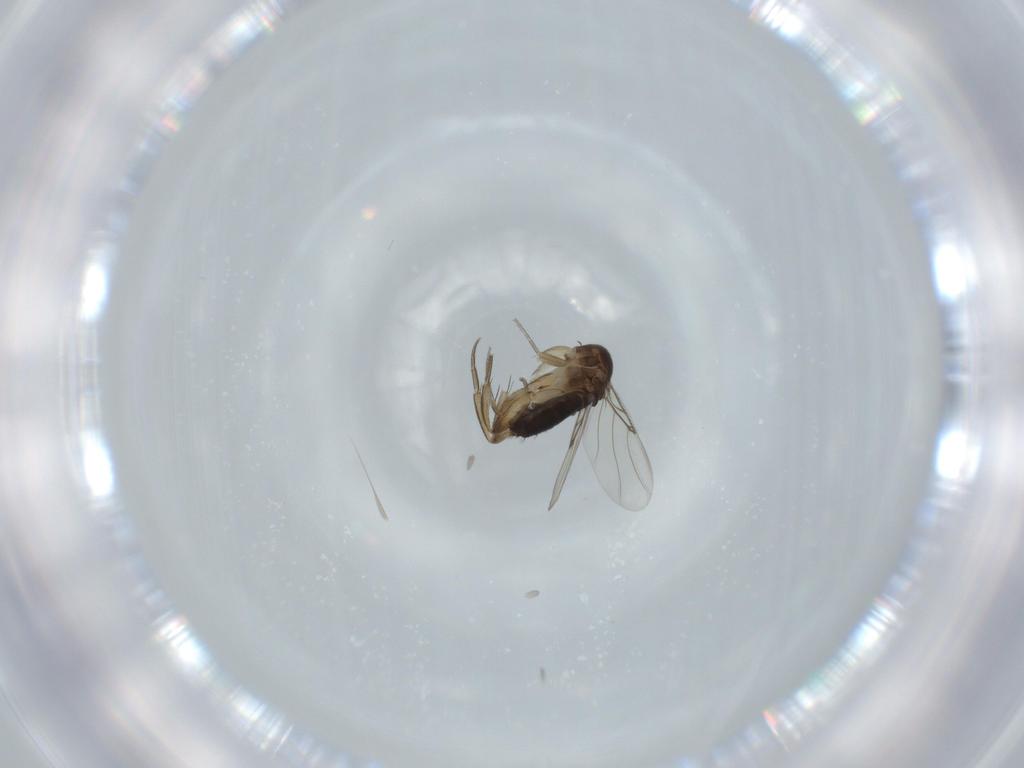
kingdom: Animalia
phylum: Arthropoda
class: Insecta
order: Diptera
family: Phoridae
